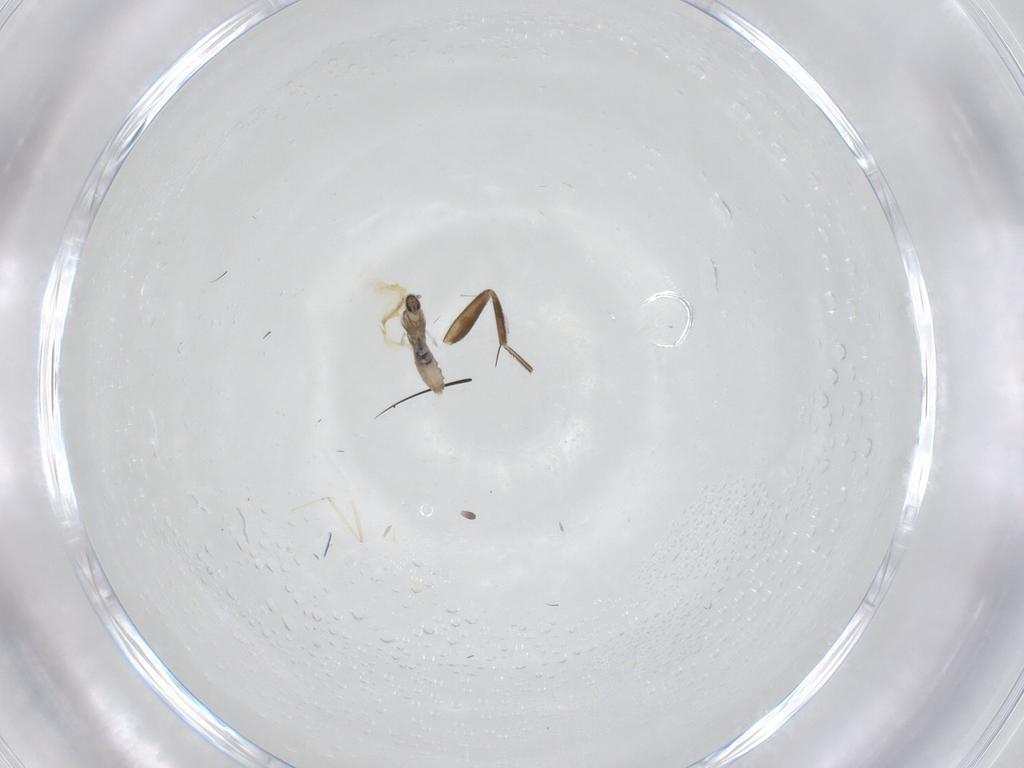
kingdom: Animalia
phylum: Arthropoda
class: Insecta
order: Diptera
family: Cecidomyiidae
